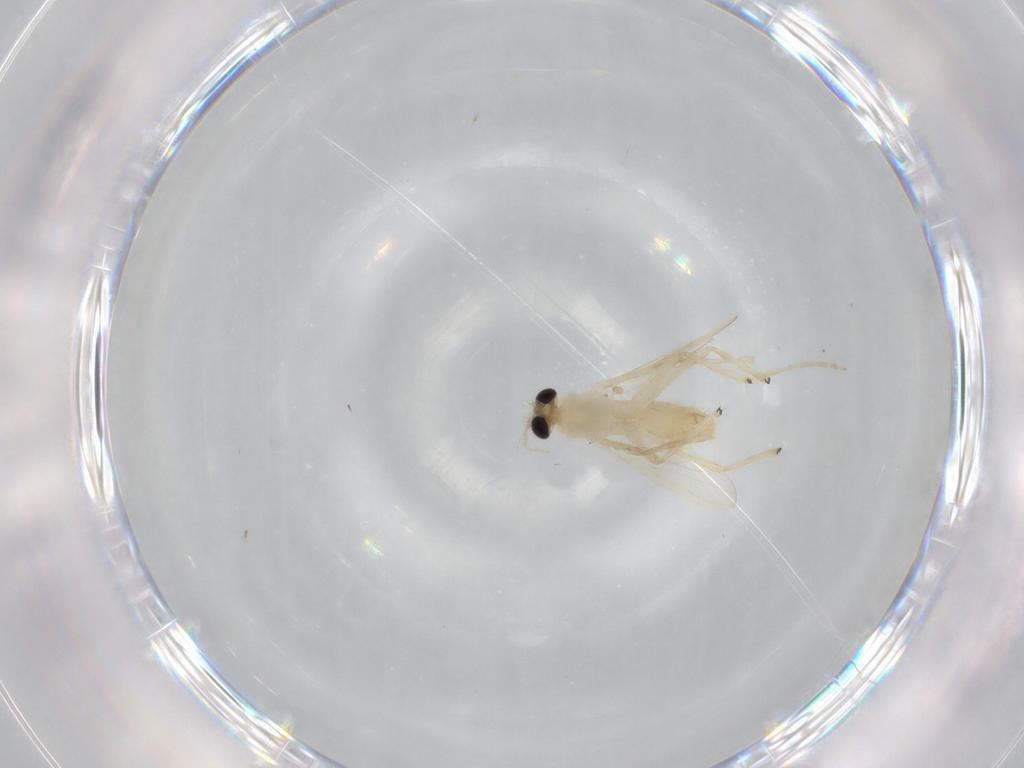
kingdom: Animalia
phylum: Arthropoda
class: Insecta
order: Diptera
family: Chironomidae
